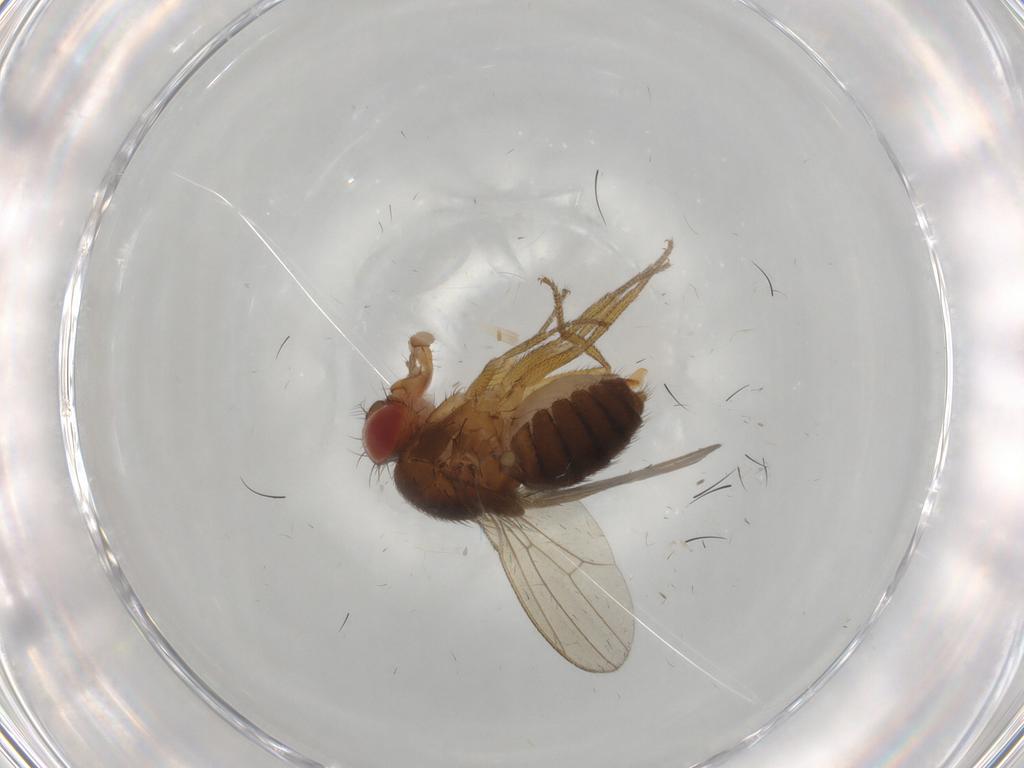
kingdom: Animalia
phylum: Arthropoda
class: Insecta
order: Diptera
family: Drosophilidae
